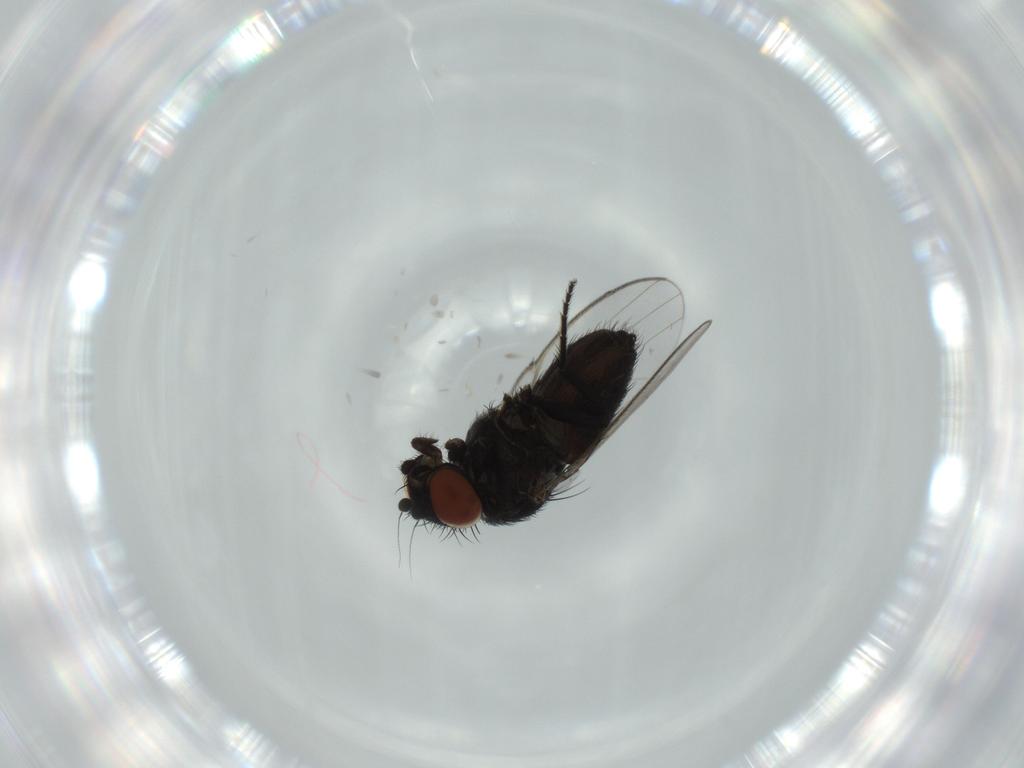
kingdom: Animalia
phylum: Arthropoda
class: Insecta
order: Diptera
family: Milichiidae
